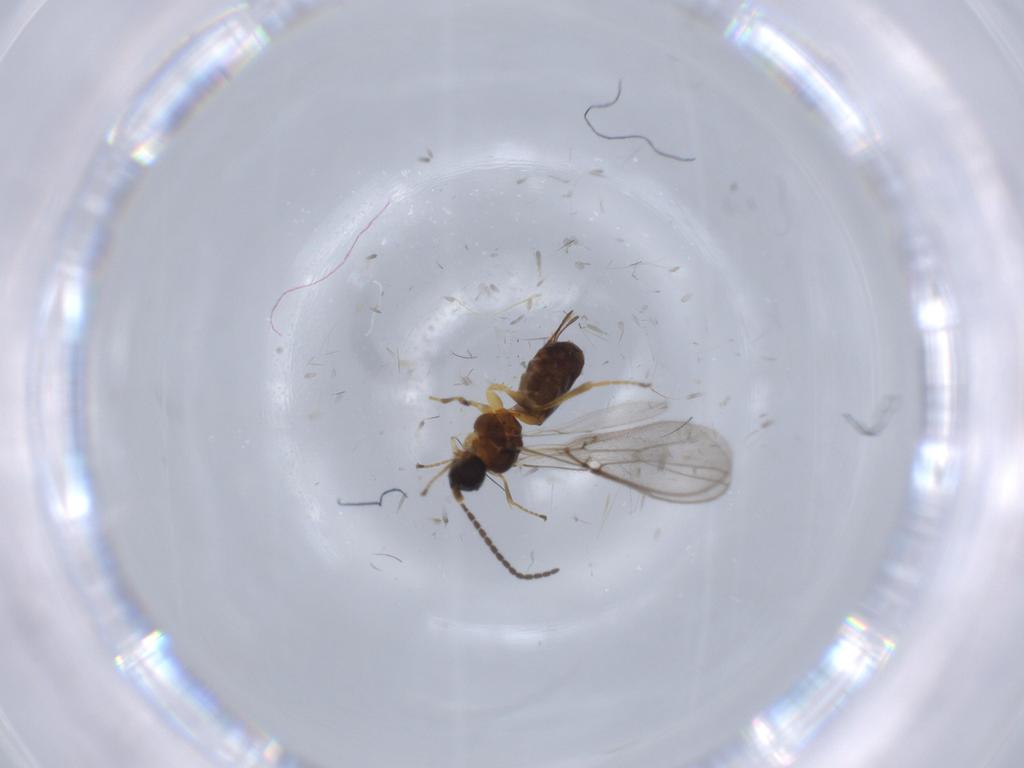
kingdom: Animalia
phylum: Arthropoda
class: Insecta
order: Hymenoptera
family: Braconidae
